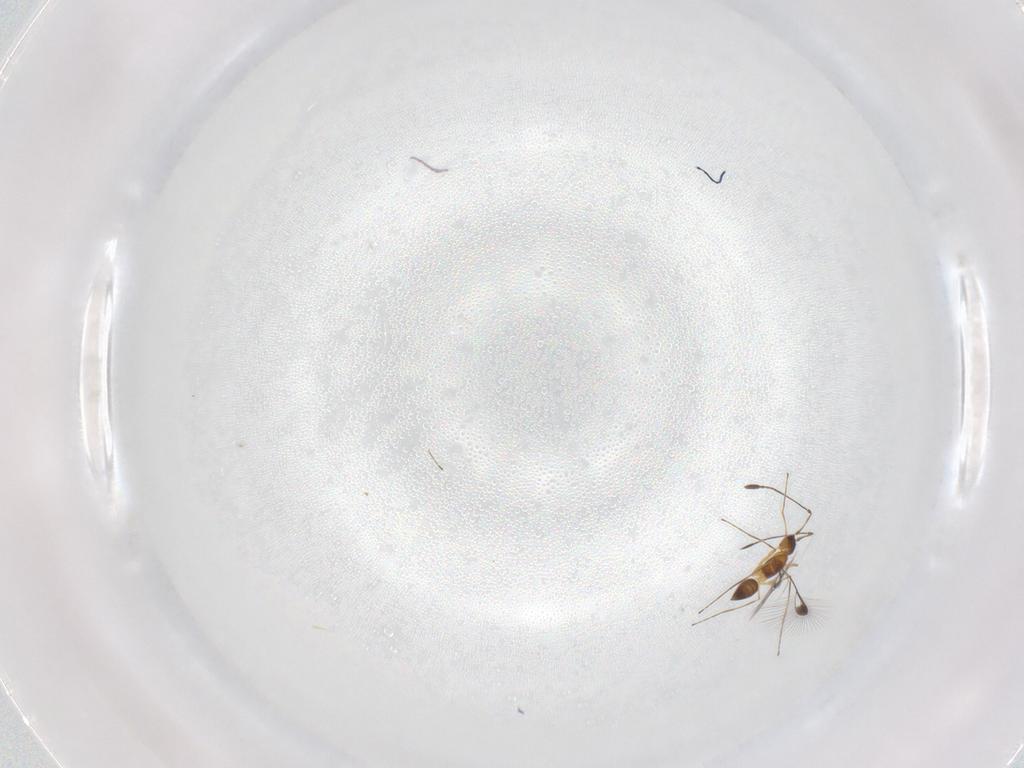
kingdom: Animalia
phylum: Arthropoda
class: Insecta
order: Hymenoptera
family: Mymaridae
